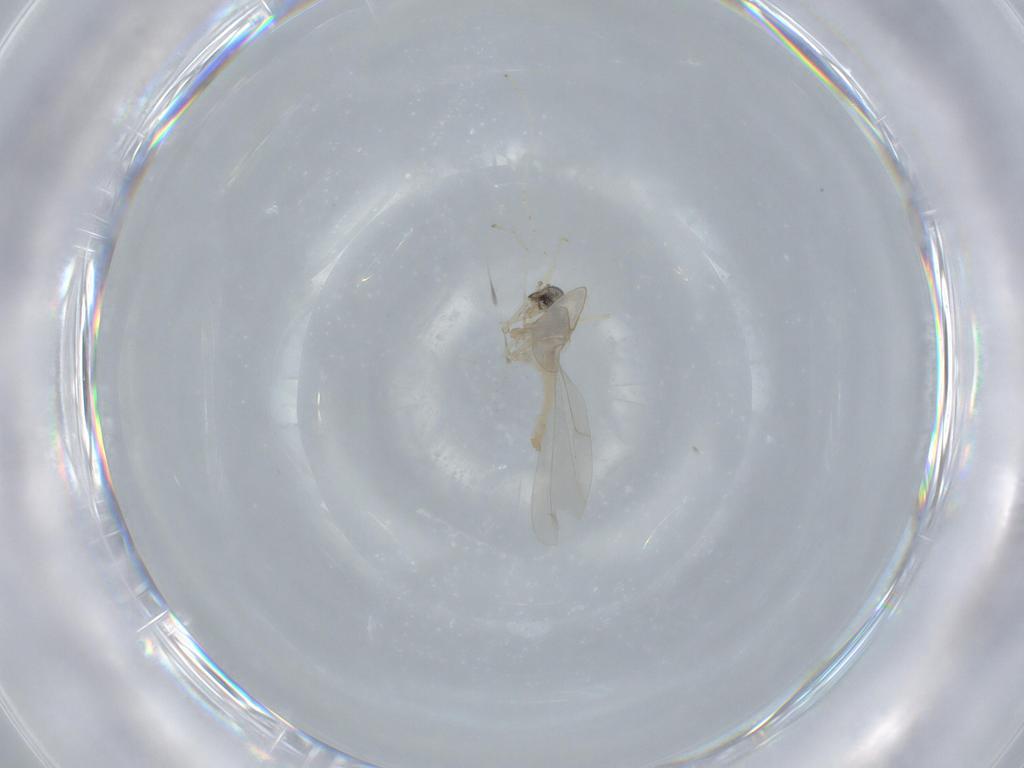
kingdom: Animalia
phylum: Arthropoda
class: Insecta
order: Diptera
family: Cecidomyiidae
